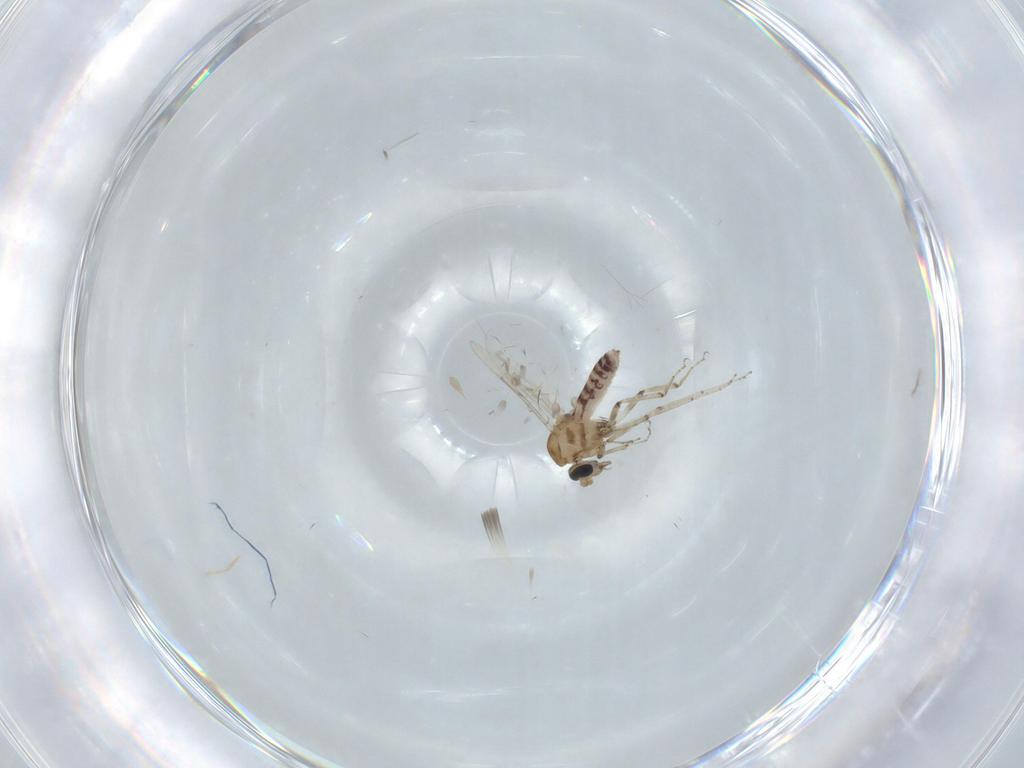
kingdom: Animalia
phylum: Arthropoda
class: Insecta
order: Diptera
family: Ceratopogonidae
